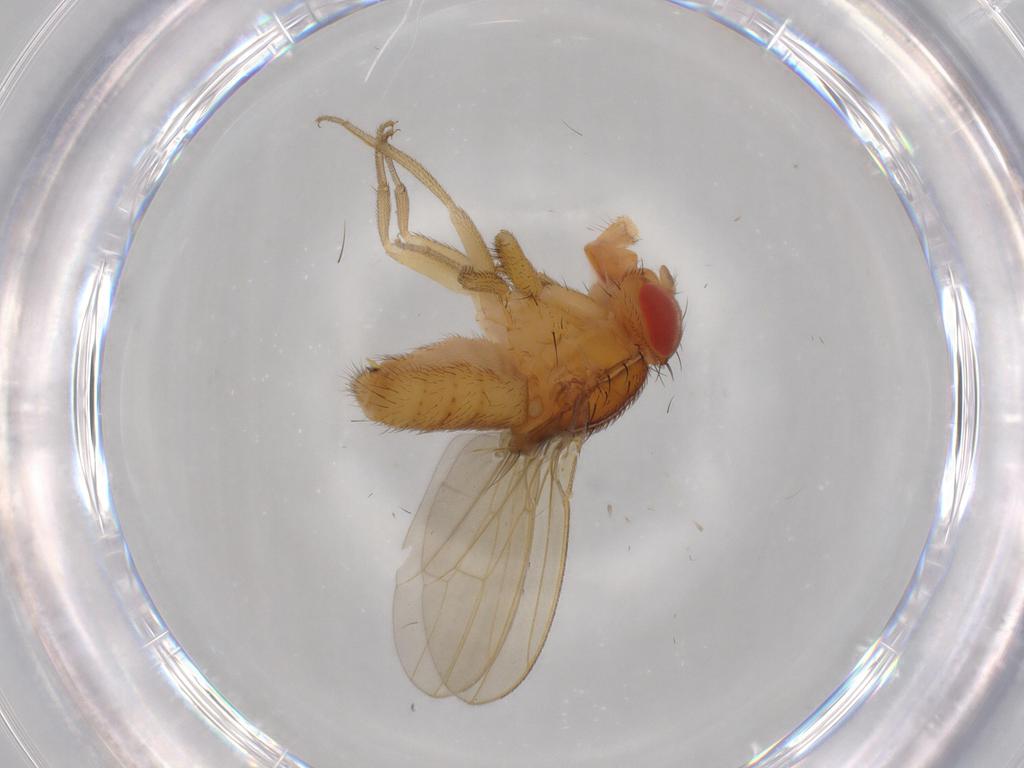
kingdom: Animalia
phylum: Arthropoda
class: Insecta
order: Diptera
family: Drosophilidae
